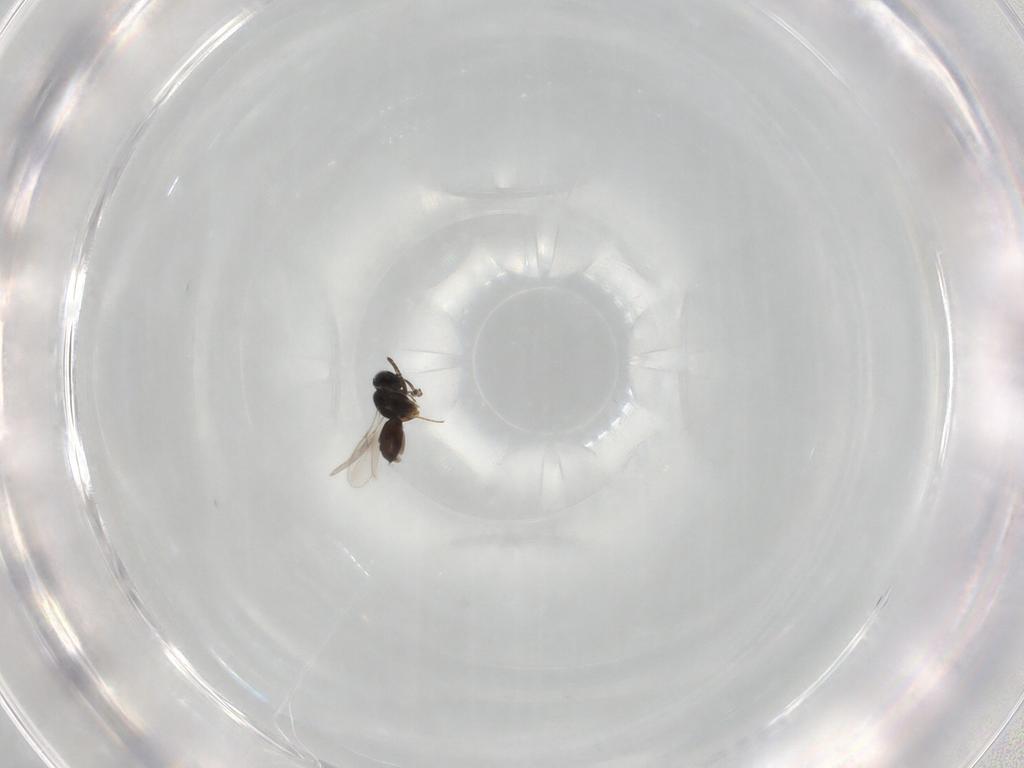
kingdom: Animalia
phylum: Arthropoda
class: Insecta
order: Hymenoptera
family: Scelionidae
